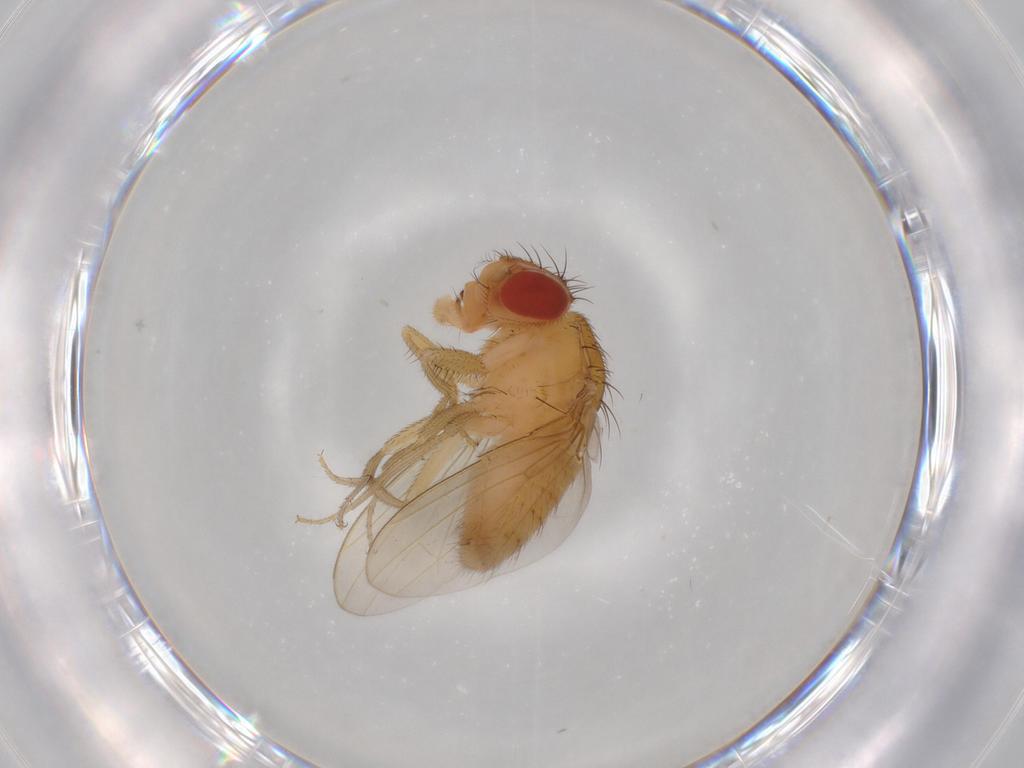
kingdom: Animalia
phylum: Arthropoda
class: Insecta
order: Diptera
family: Drosophilidae
